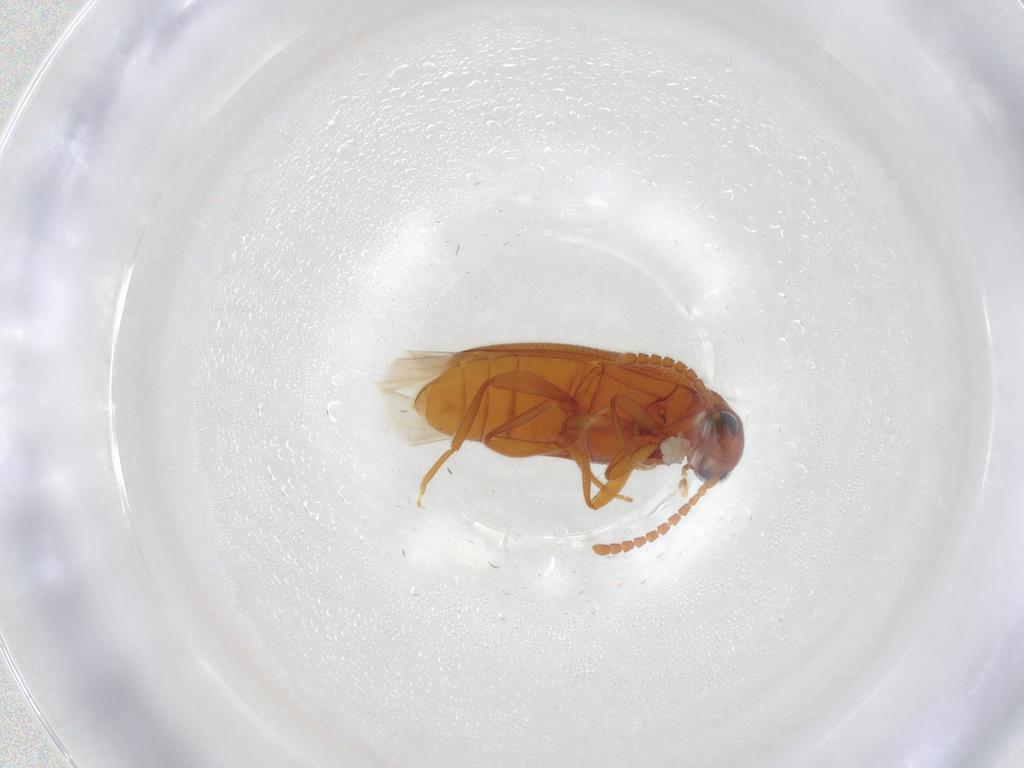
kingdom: Animalia
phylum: Arthropoda
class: Insecta
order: Coleoptera
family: Aderidae
